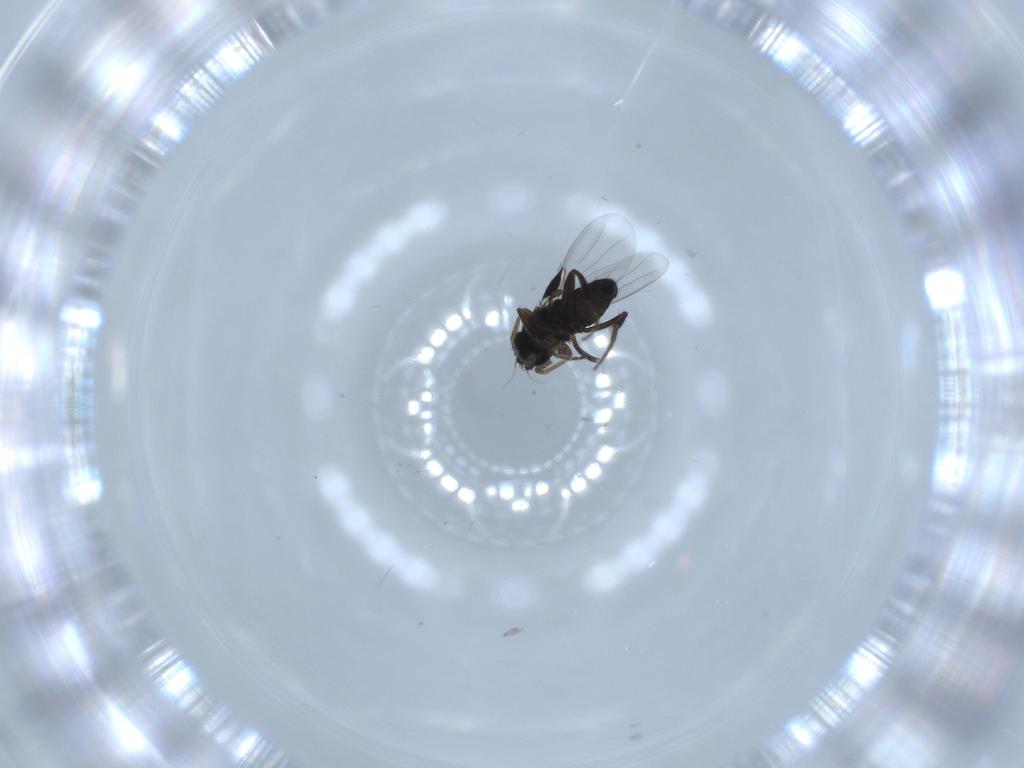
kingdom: Animalia
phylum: Arthropoda
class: Insecta
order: Diptera
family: Phoridae
